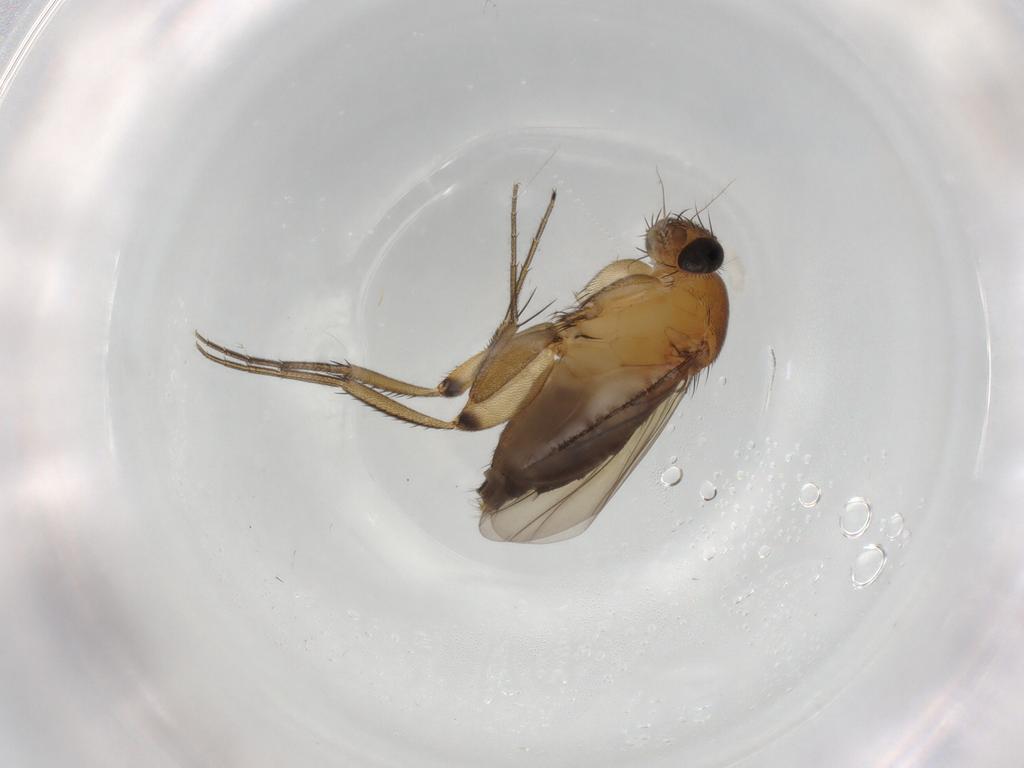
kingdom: Animalia
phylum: Arthropoda
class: Insecta
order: Diptera
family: Phoridae
